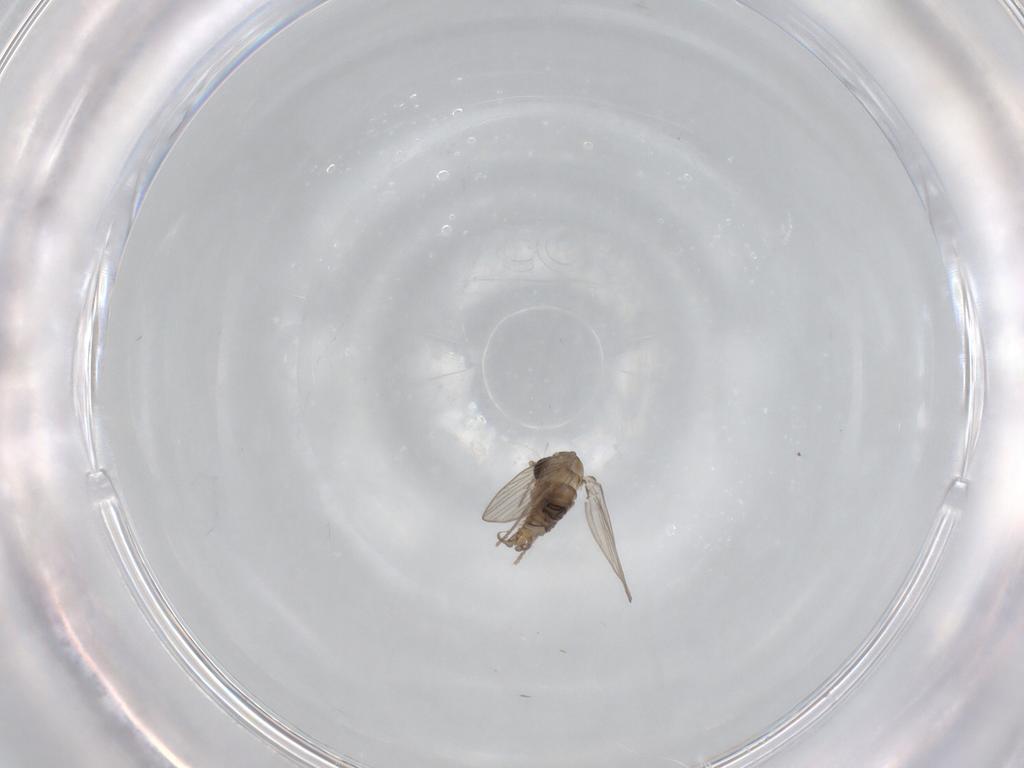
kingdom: Animalia
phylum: Arthropoda
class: Insecta
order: Diptera
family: Psychodidae
